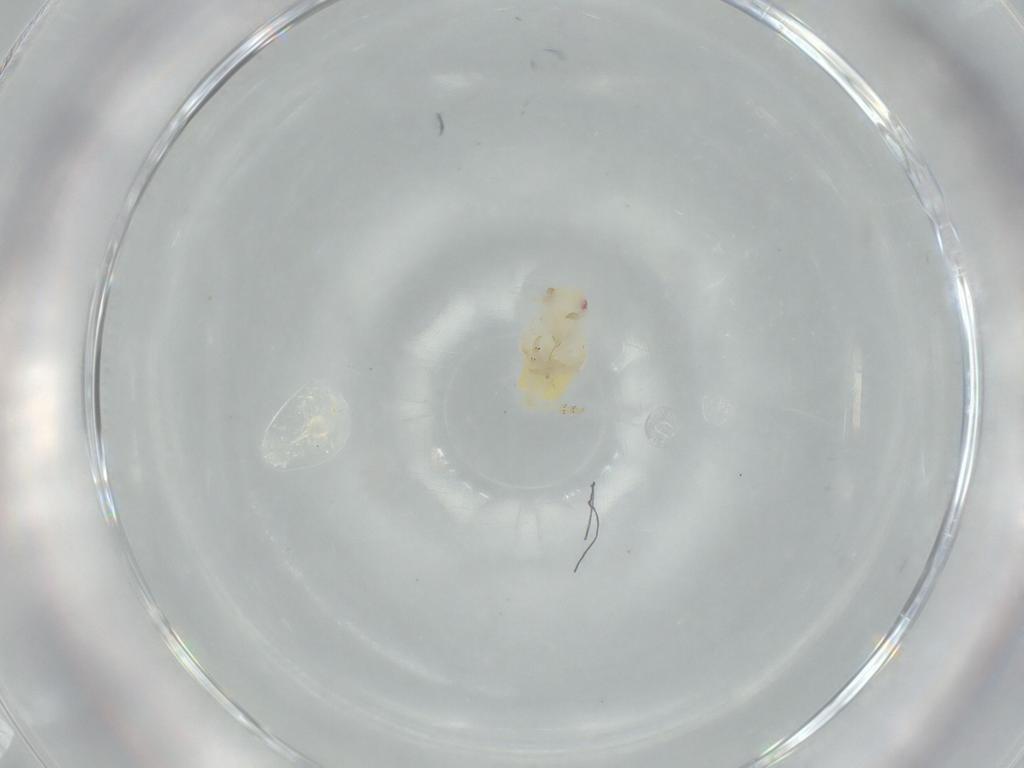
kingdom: Animalia
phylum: Arthropoda
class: Insecta
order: Hemiptera
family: Flatidae
